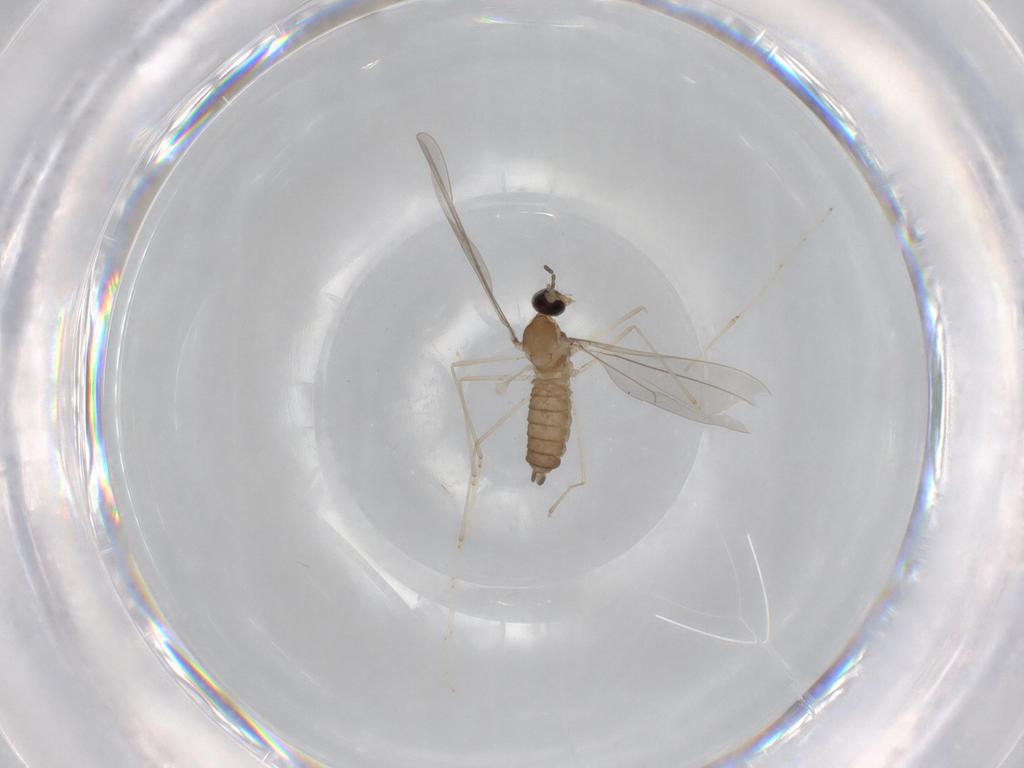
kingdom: Animalia
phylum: Arthropoda
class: Insecta
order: Diptera
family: Cecidomyiidae
